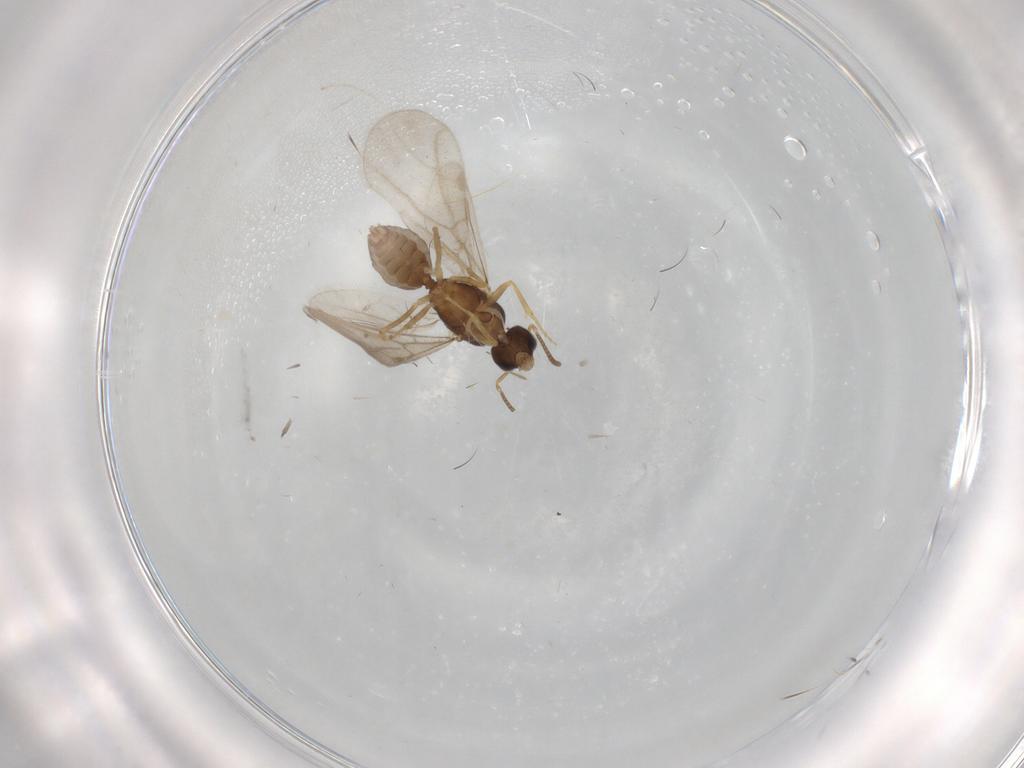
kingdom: Animalia
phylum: Arthropoda
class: Insecta
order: Hymenoptera
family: Formicidae
